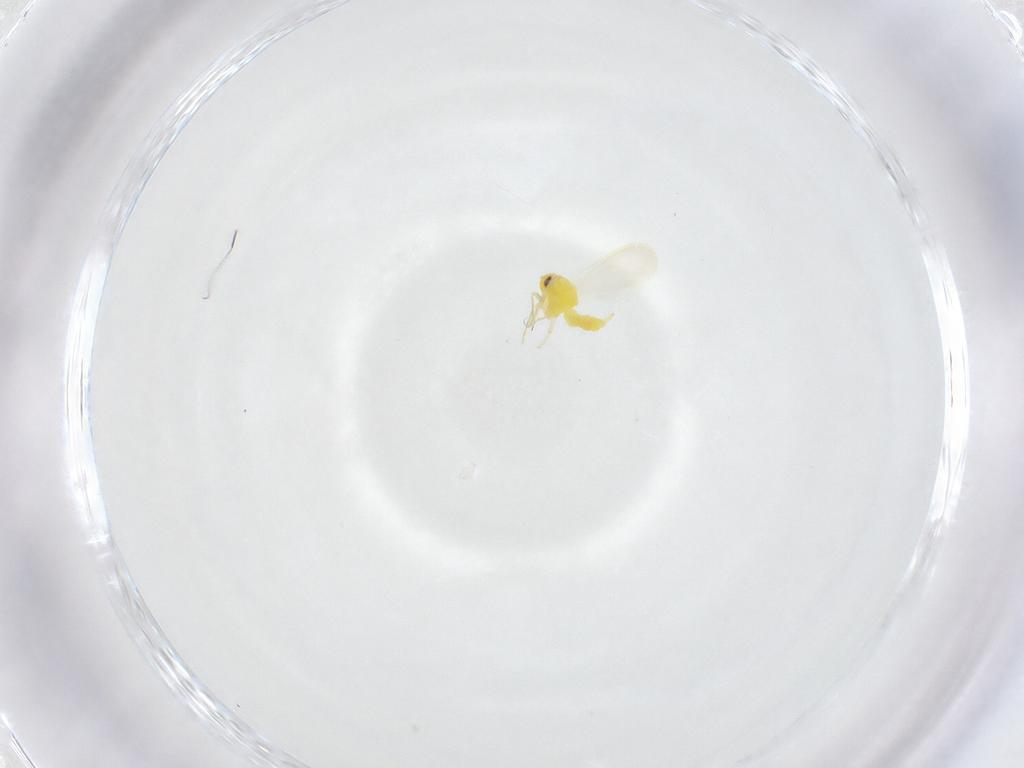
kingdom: Animalia
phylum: Arthropoda
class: Insecta
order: Hemiptera
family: Aleyrodidae
